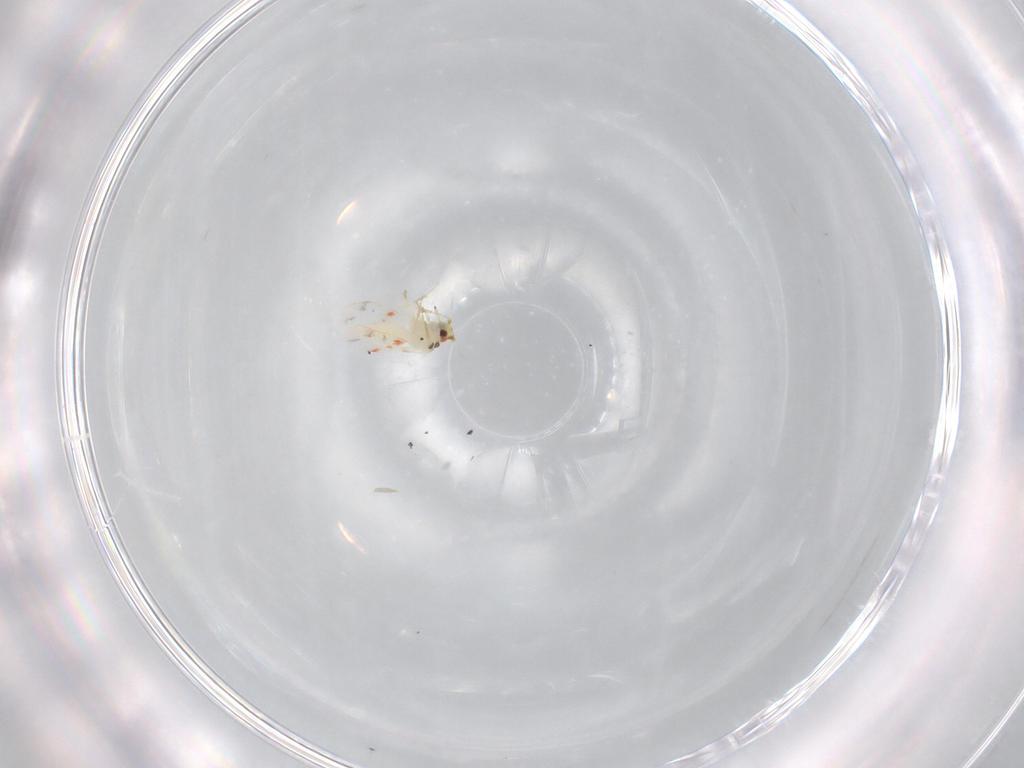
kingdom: Animalia
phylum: Arthropoda
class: Insecta
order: Hemiptera
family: Aleyrodidae
